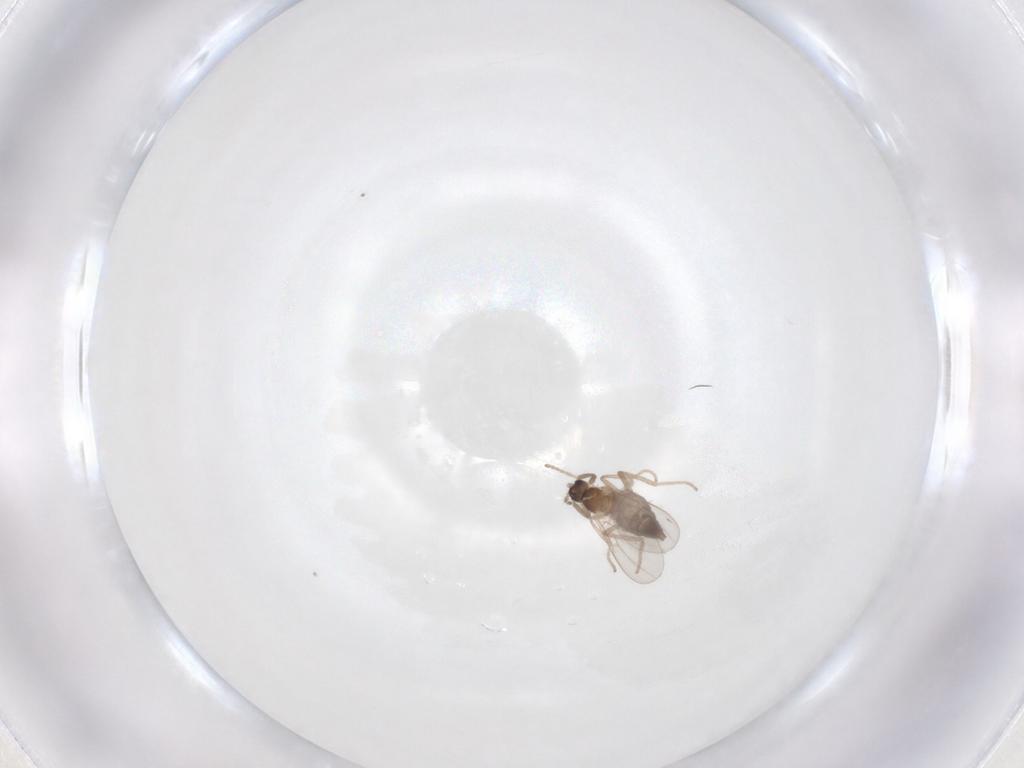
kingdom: Animalia
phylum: Arthropoda
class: Insecta
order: Diptera
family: Cecidomyiidae
